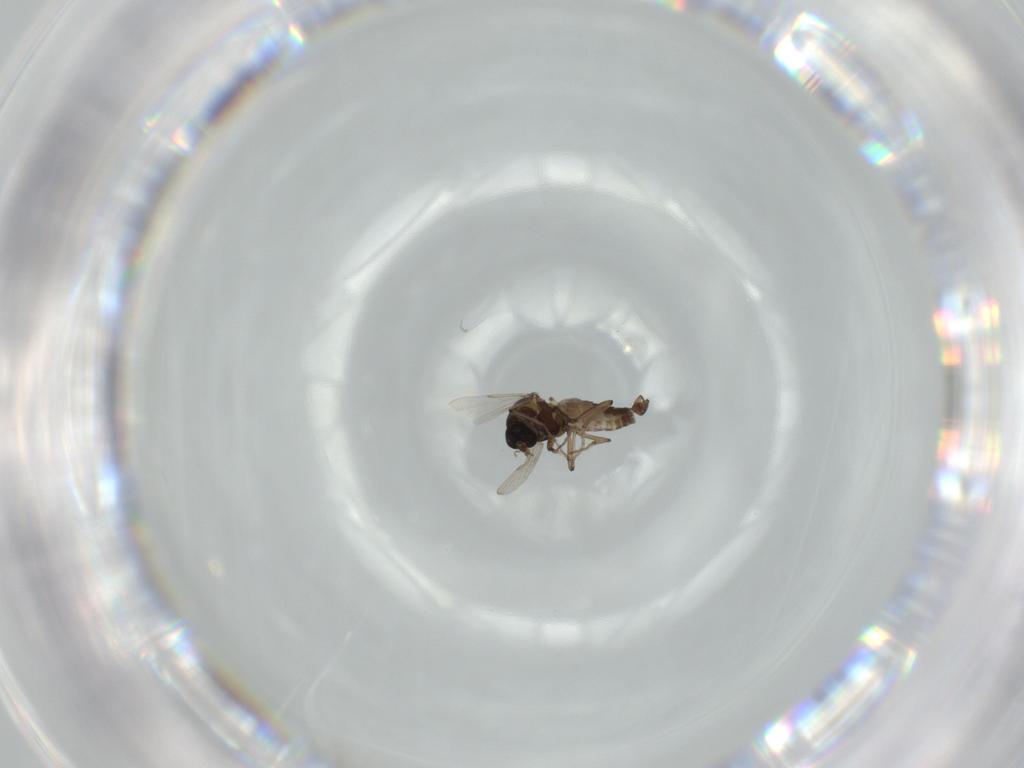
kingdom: Animalia
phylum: Arthropoda
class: Insecta
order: Diptera
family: Ceratopogonidae
